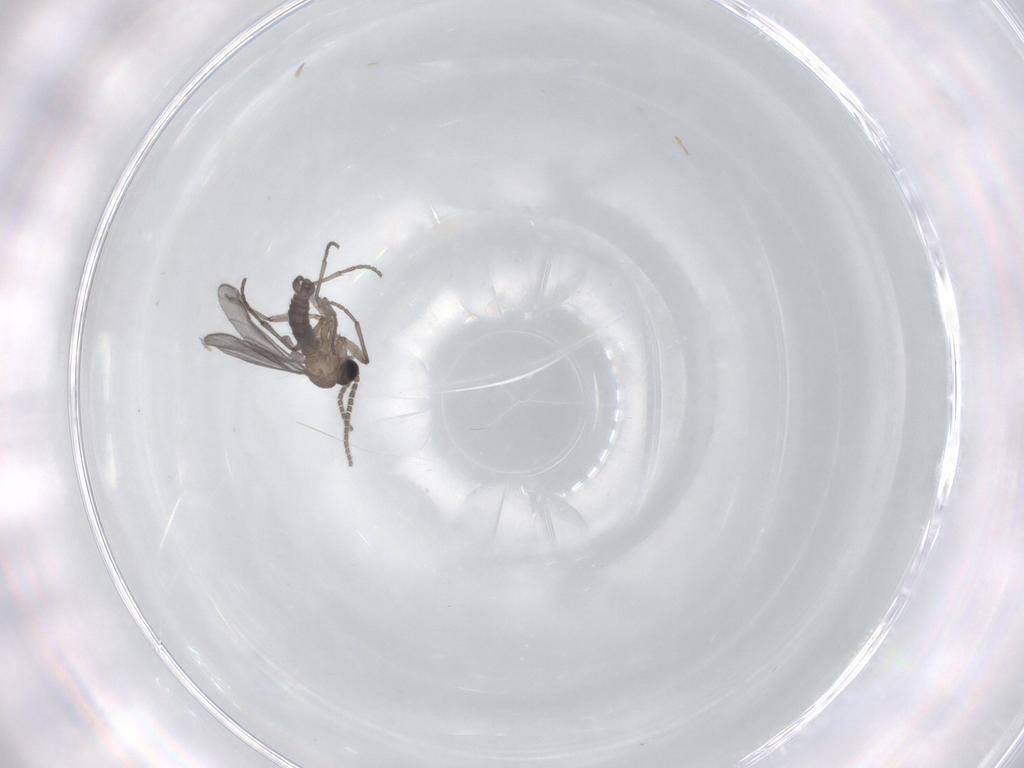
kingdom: Animalia
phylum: Arthropoda
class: Insecta
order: Diptera
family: Sciaridae
